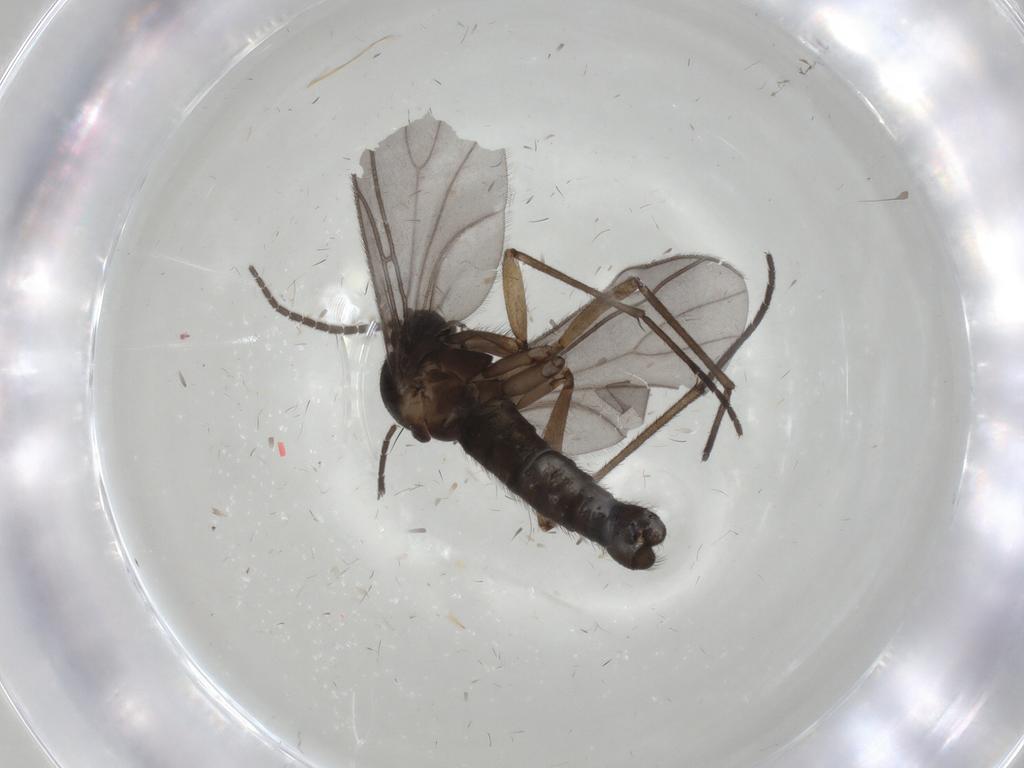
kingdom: Animalia
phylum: Arthropoda
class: Insecta
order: Diptera
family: Sciaridae
